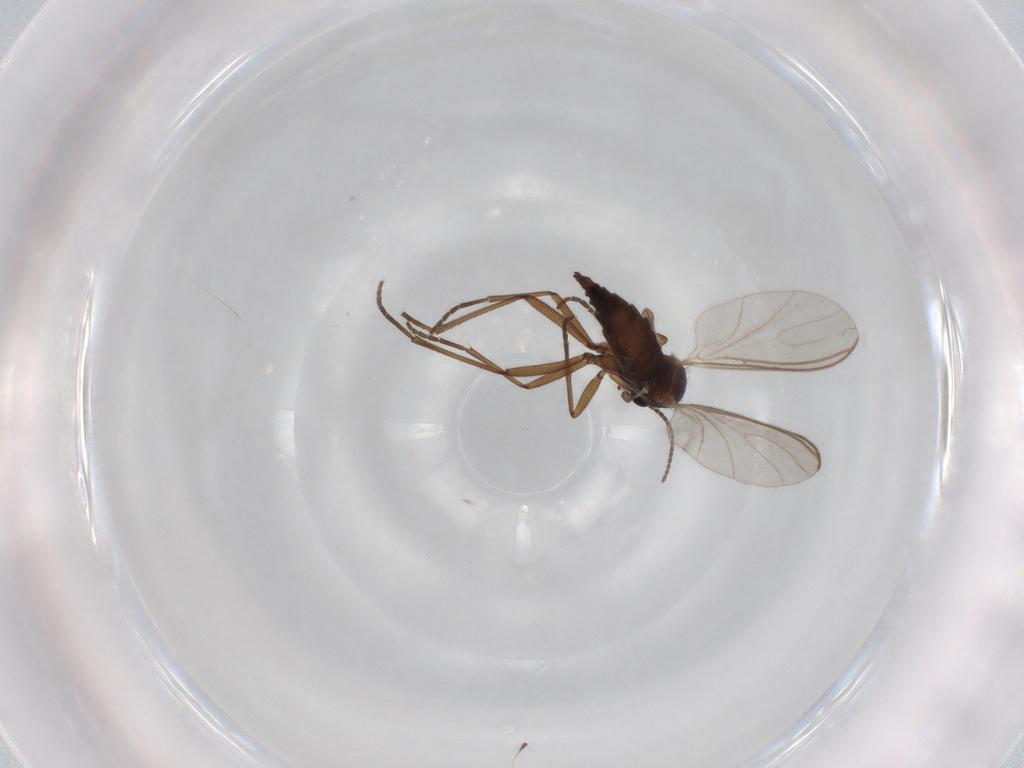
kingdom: Animalia
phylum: Arthropoda
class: Insecta
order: Diptera
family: Sciaridae
